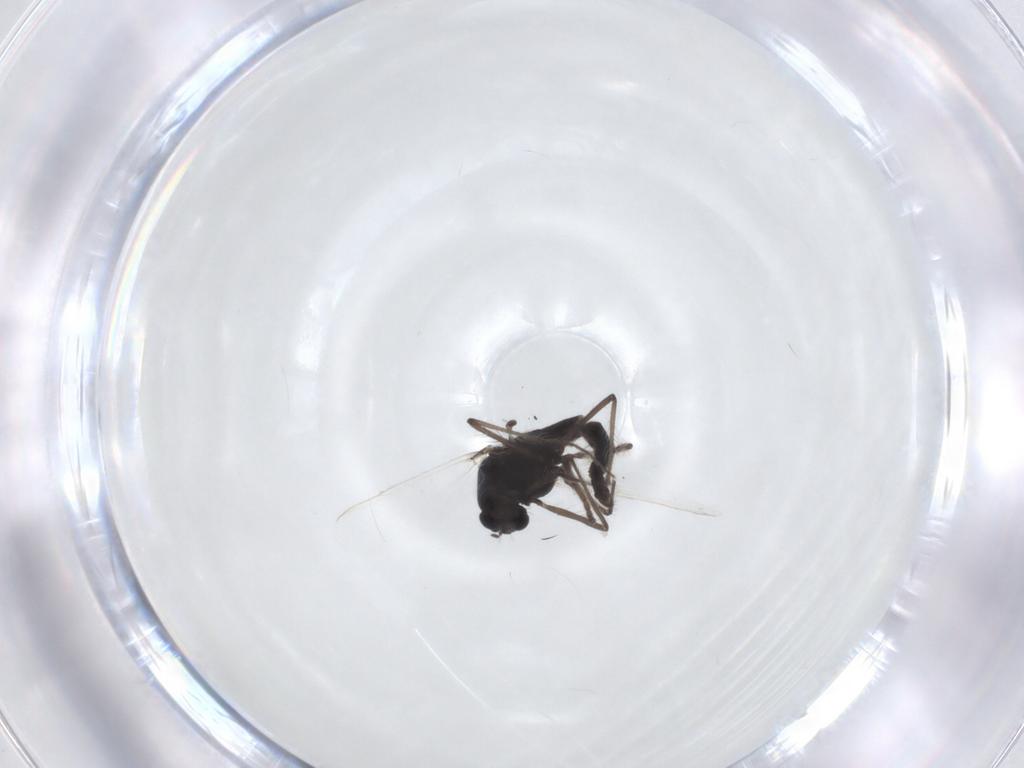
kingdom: Animalia
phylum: Arthropoda
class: Insecta
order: Diptera
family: Chironomidae
